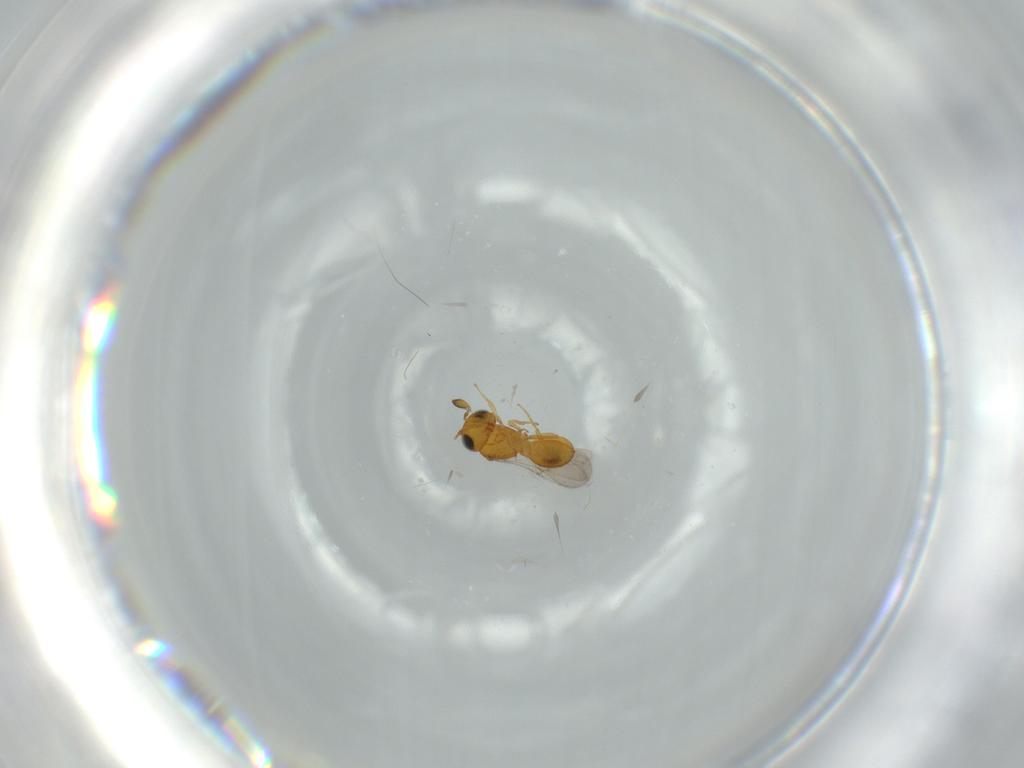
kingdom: Animalia
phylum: Arthropoda
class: Insecta
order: Hymenoptera
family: Scelionidae
